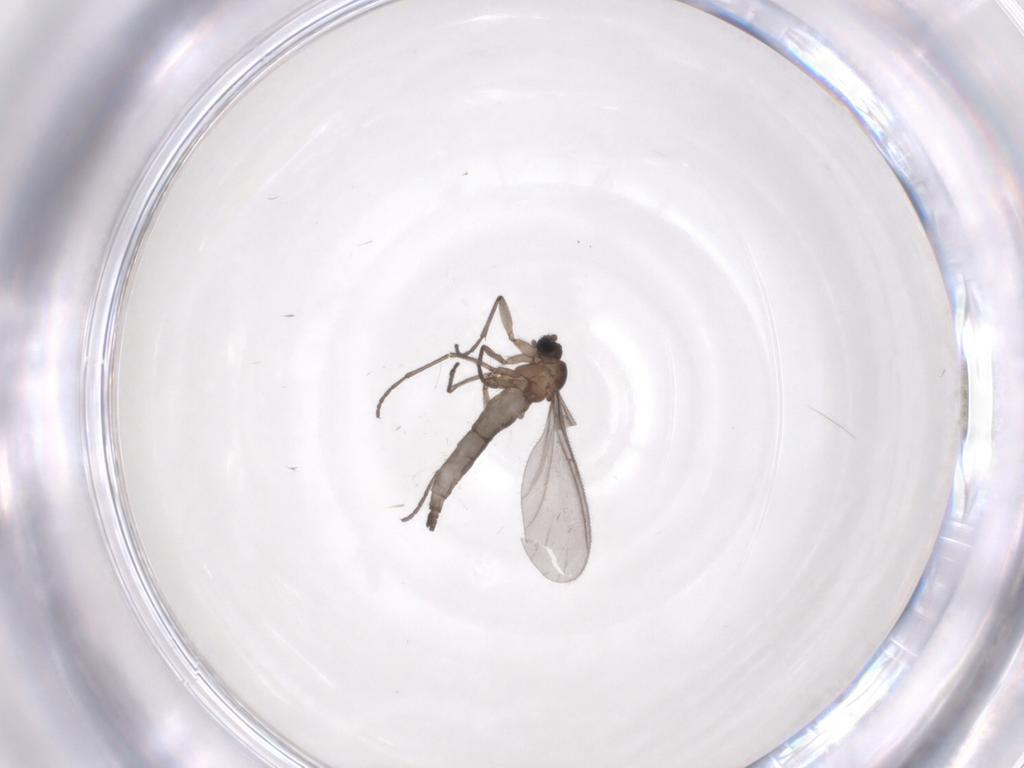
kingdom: Animalia
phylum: Arthropoda
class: Insecta
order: Diptera
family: Sciaridae
